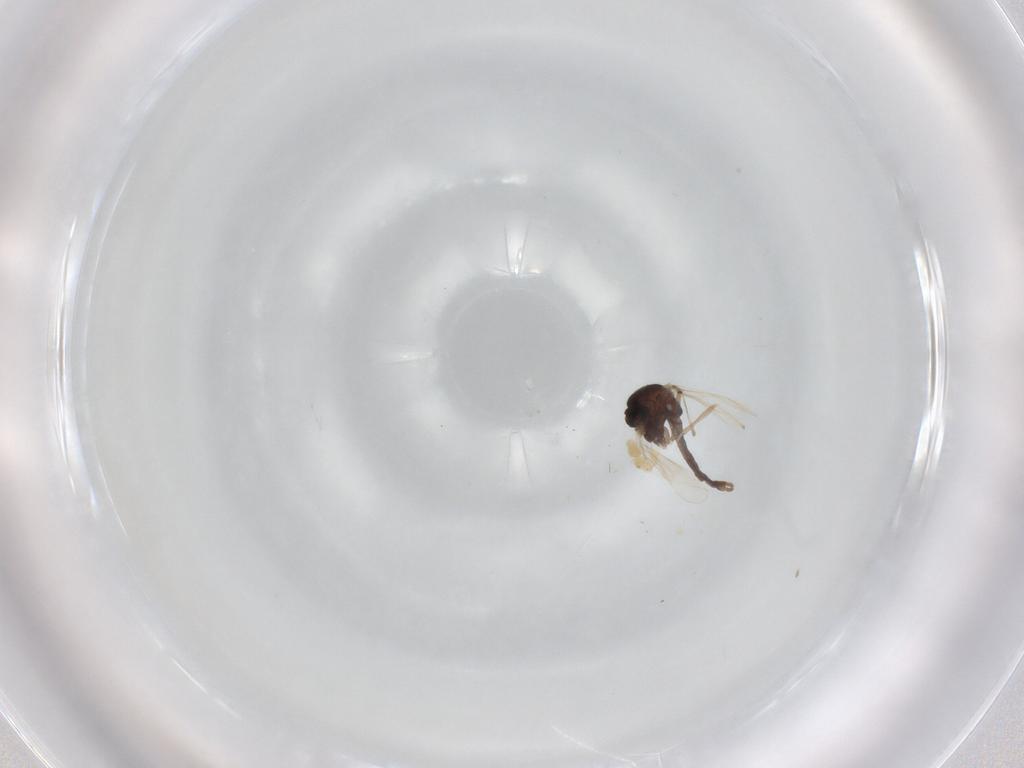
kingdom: Animalia
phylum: Arthropoda
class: Insecta
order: Diptera
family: Chironomidae
